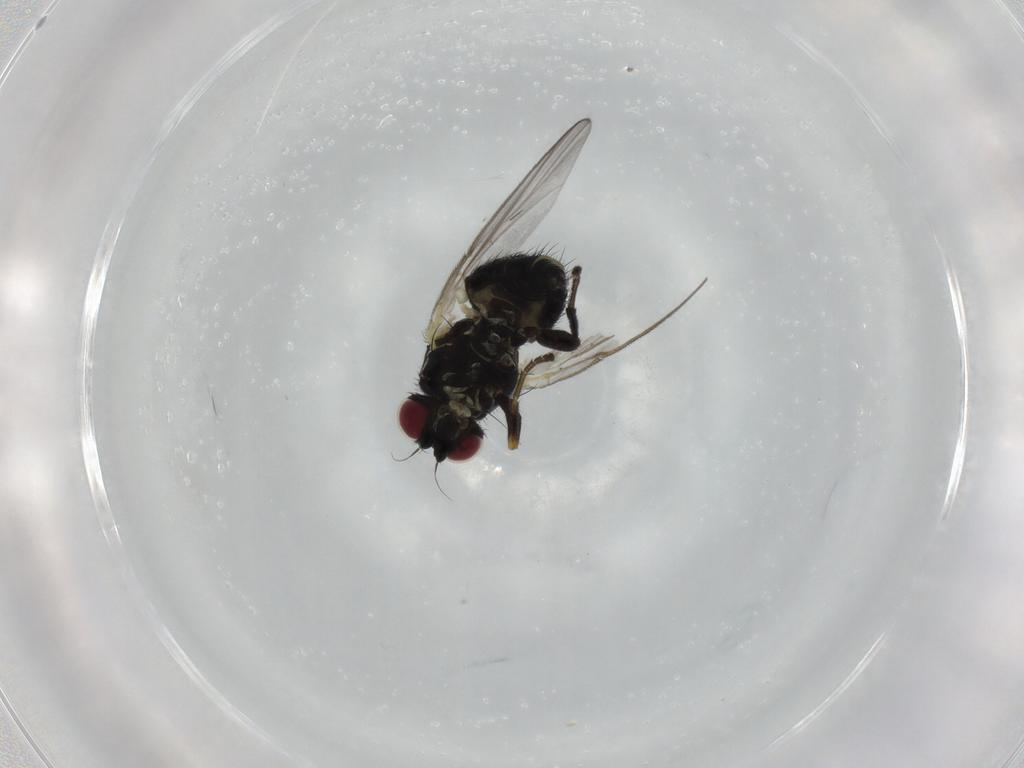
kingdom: Animalia
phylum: Arthropoda
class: Insecta
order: Diptera
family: Agromyzidae
